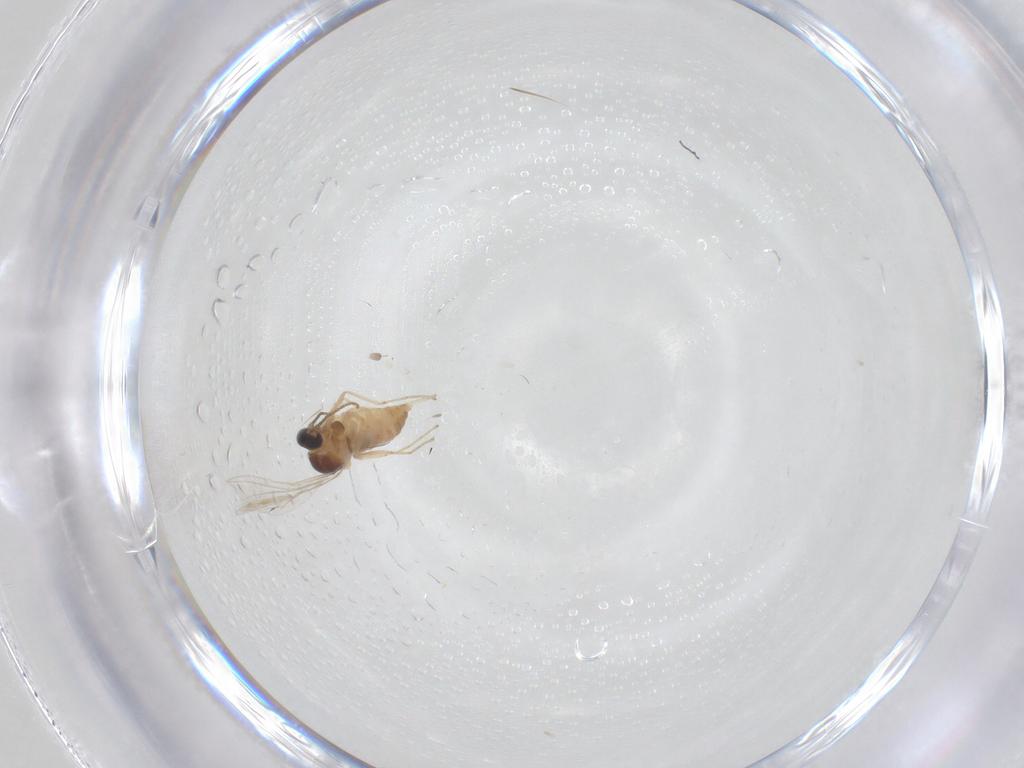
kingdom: Animalia
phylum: Arthropoda
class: Insecta
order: Diptera
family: Cecidomyiidae
